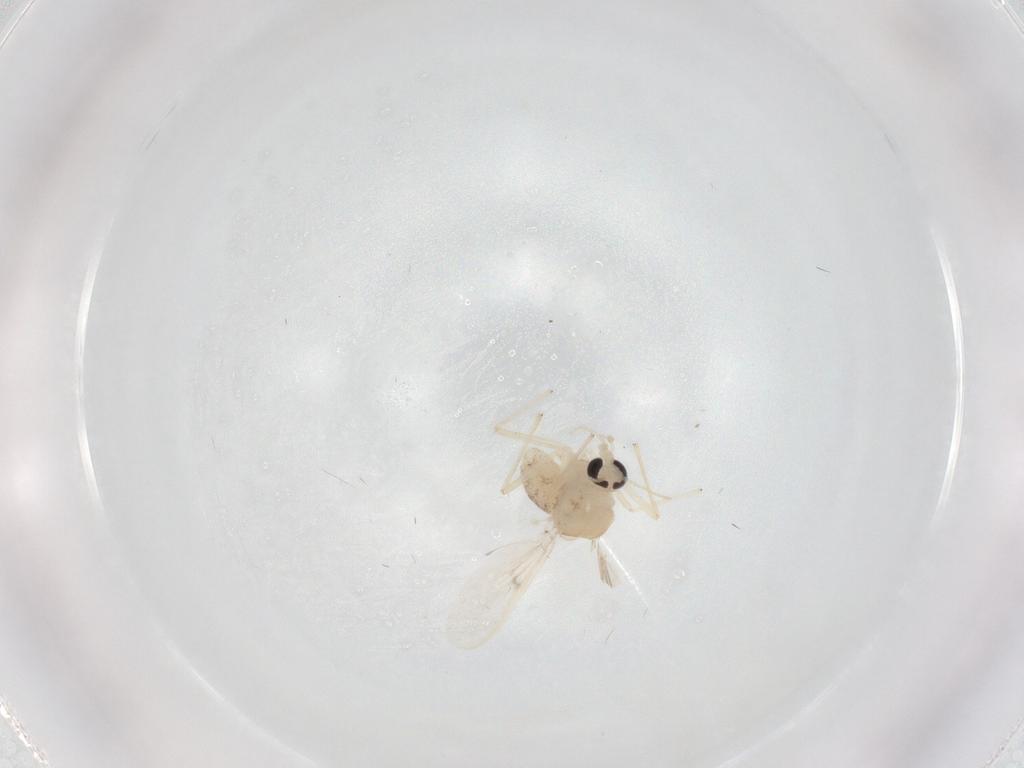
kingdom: Animalia
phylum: Arthropoda
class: Insecta
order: Diptera
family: Chironomidae
